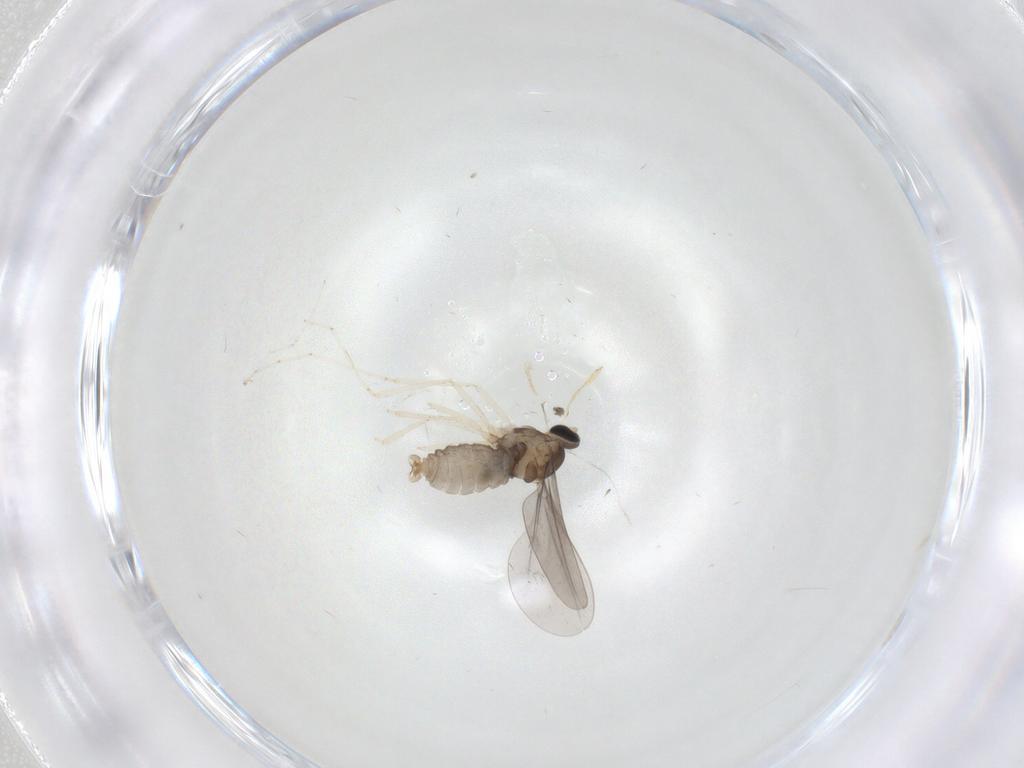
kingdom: Animalia
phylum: Arthropoda
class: Insecta
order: Diptera
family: Cecidomyiidae
